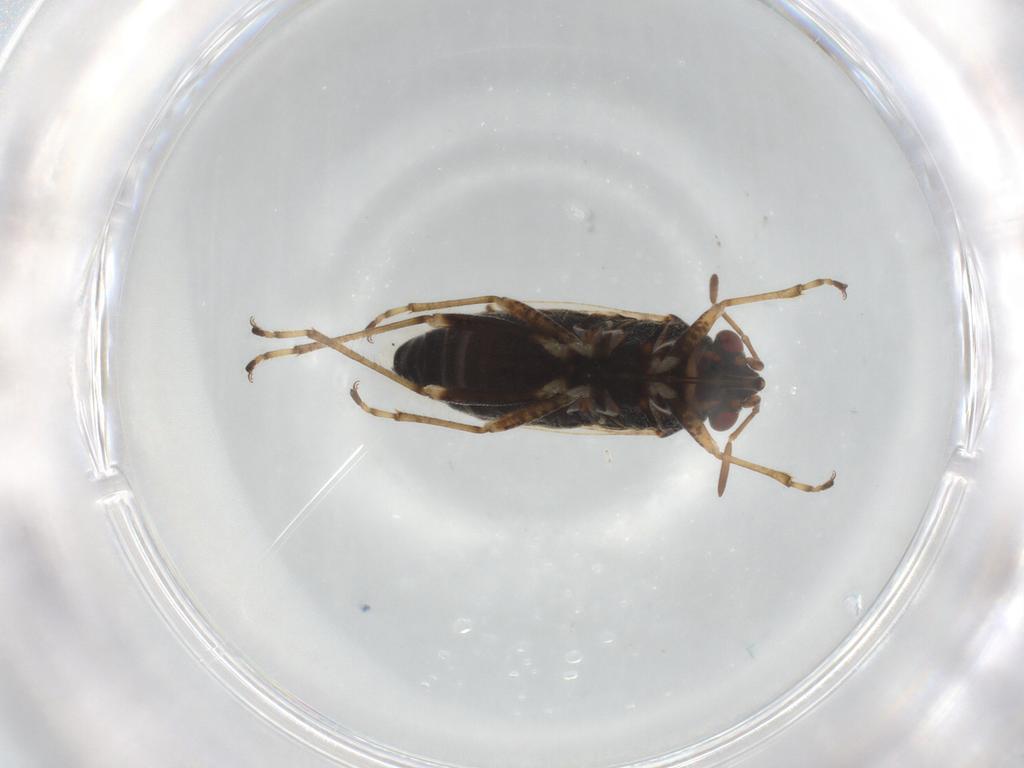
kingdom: Animalia
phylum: Arthropoda
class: Insecta
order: Hemiptera
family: Lygaeidae
